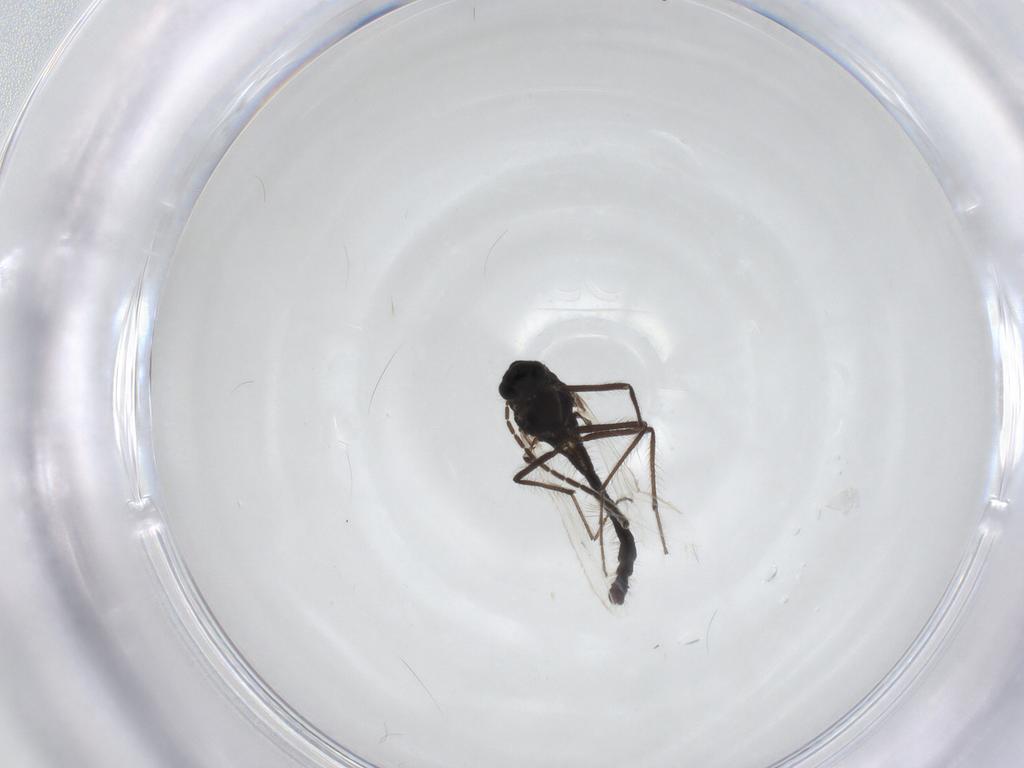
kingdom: Animalia
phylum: Arthropoda
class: Insecta
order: Diptera
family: Sciaridae
